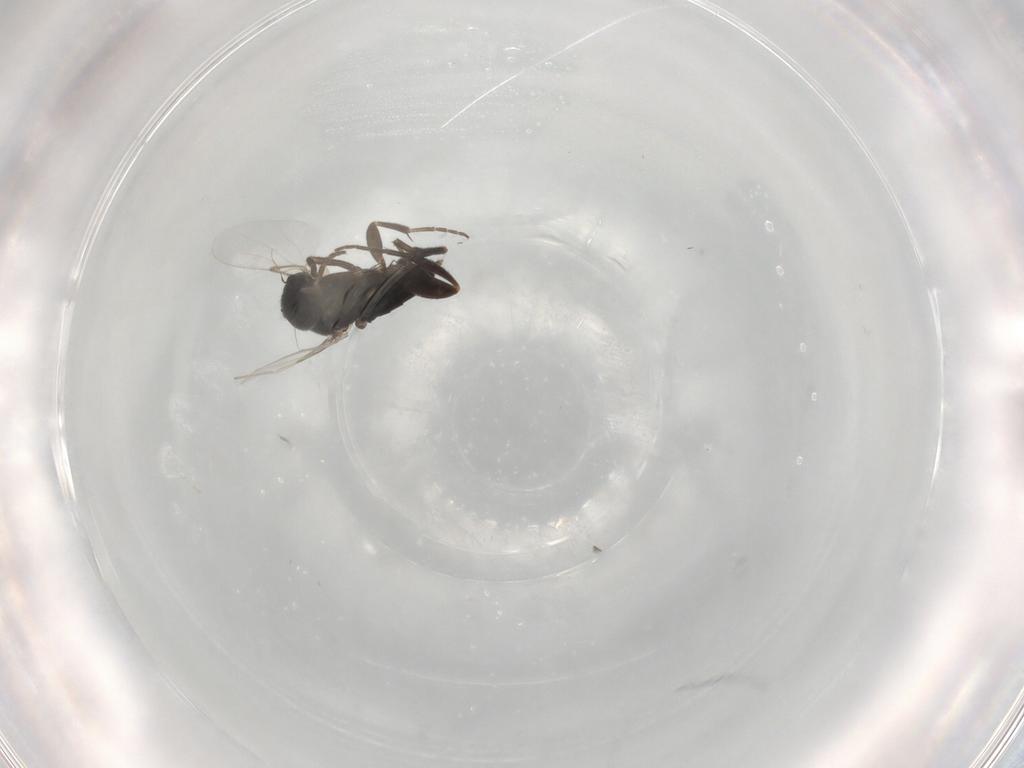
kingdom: Animalia
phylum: Arthropoda
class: Insecta
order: Diptera
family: Phoridae
